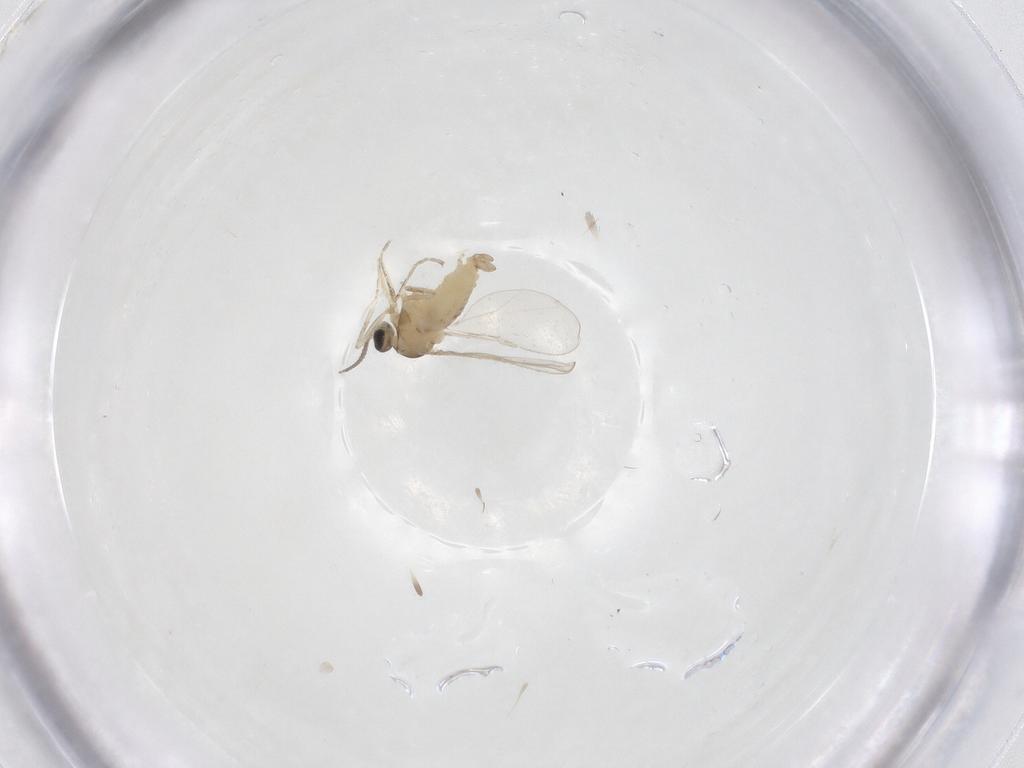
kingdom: Animalia
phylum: Arthropoda
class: Insecta
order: Diptera
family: Cecidomyiidae
